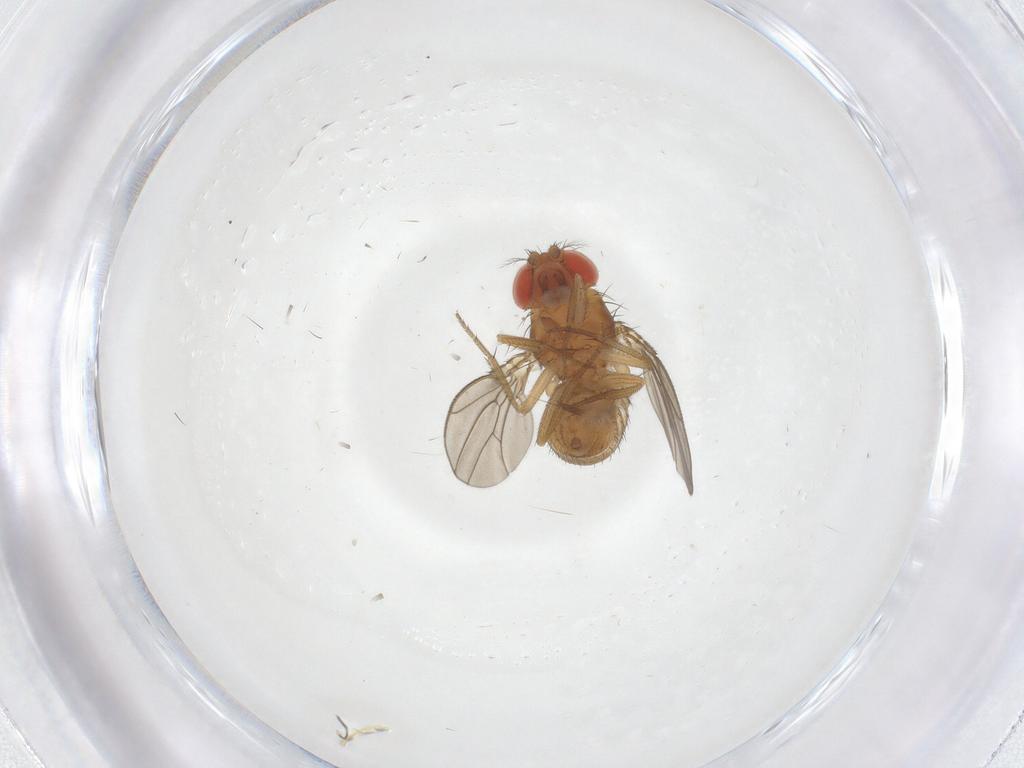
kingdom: Animalia
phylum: Arthropoda
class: Insecta
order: Diptera
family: Drosophilidae
